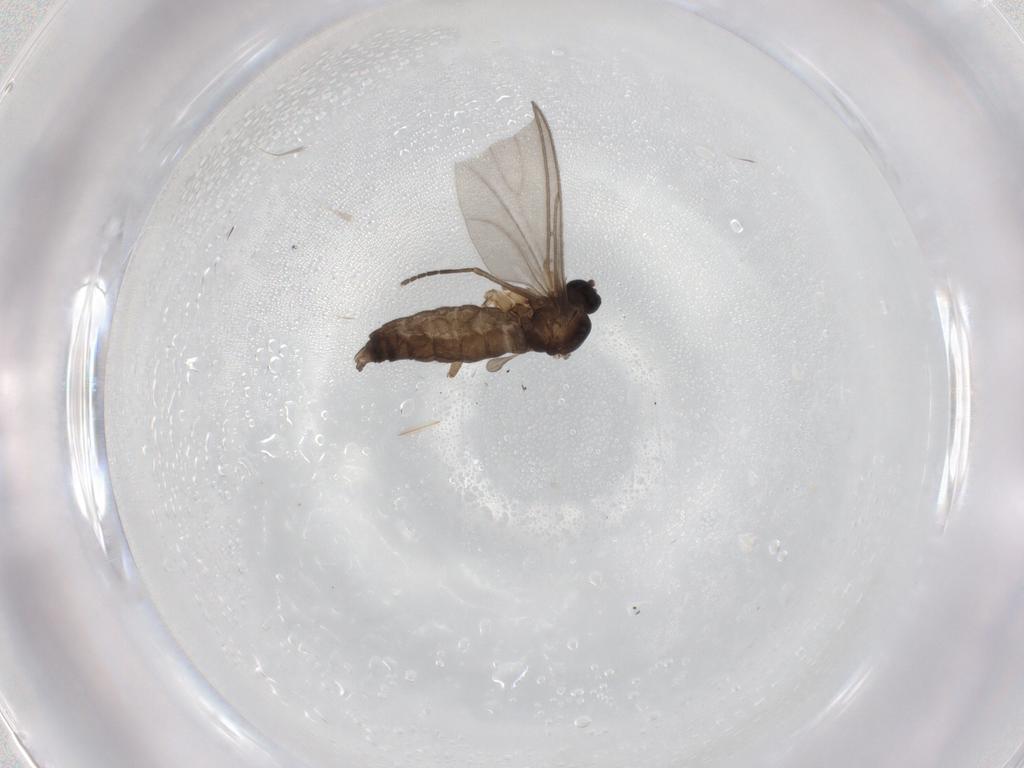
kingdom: Animalia
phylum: Arthropoda
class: Insecta
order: Diptera
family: Sciaridae
